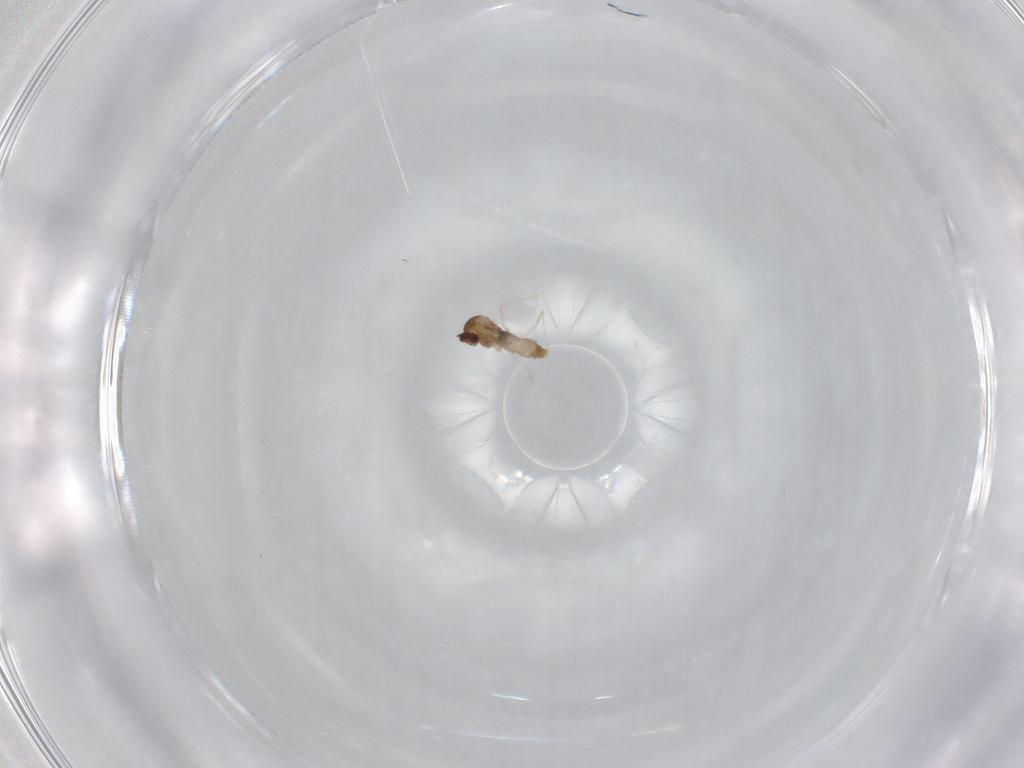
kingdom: Animalia
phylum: Arthropoda
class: Insecta
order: Diptera
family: Cecidomyiidae
